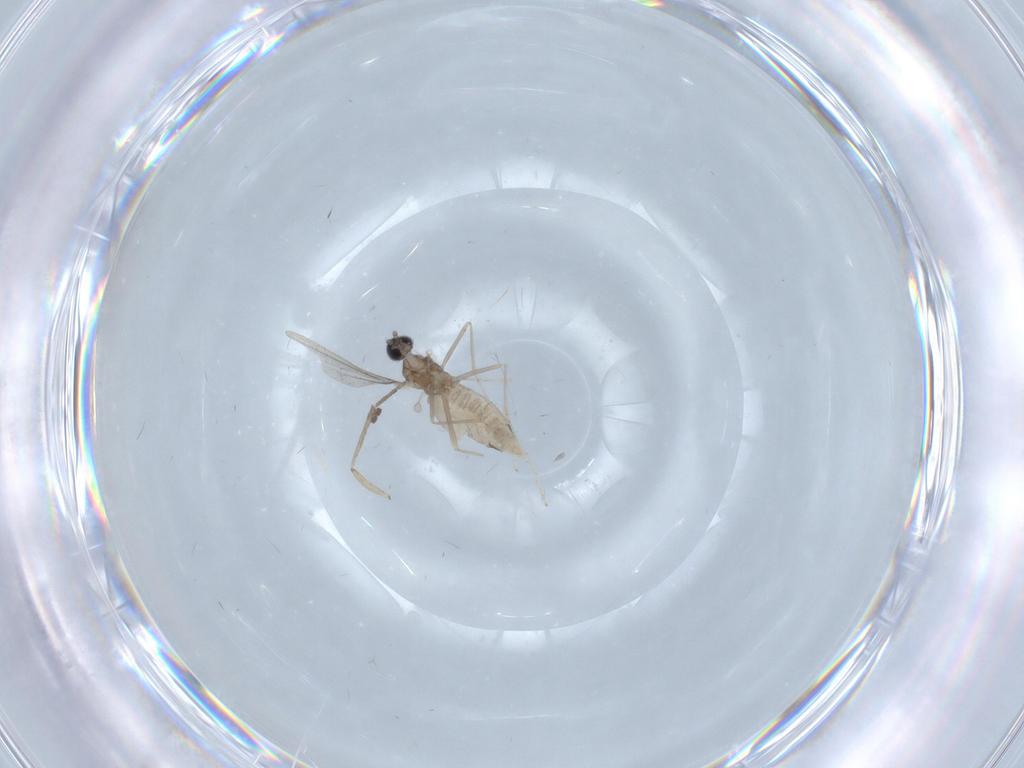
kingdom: Animalia
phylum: Arthropoda
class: Insecta
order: Diptera
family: Cecidomyiidae
